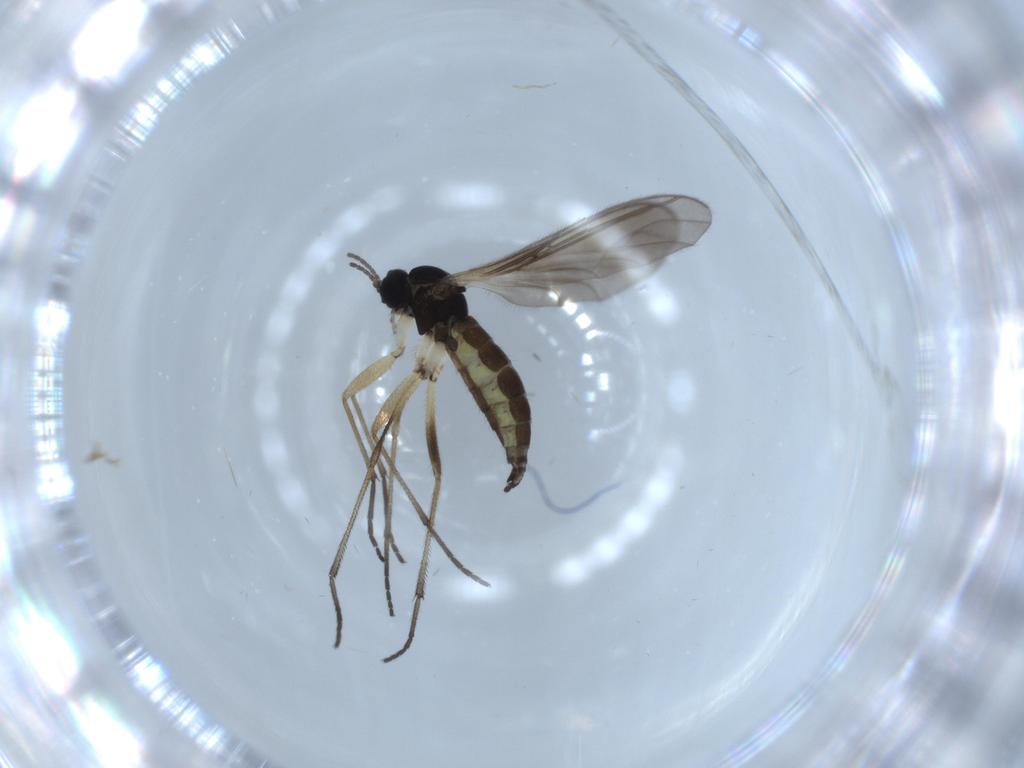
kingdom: Animalia
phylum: Arthropoda
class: Insecta
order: Diptera
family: Sciaridae
